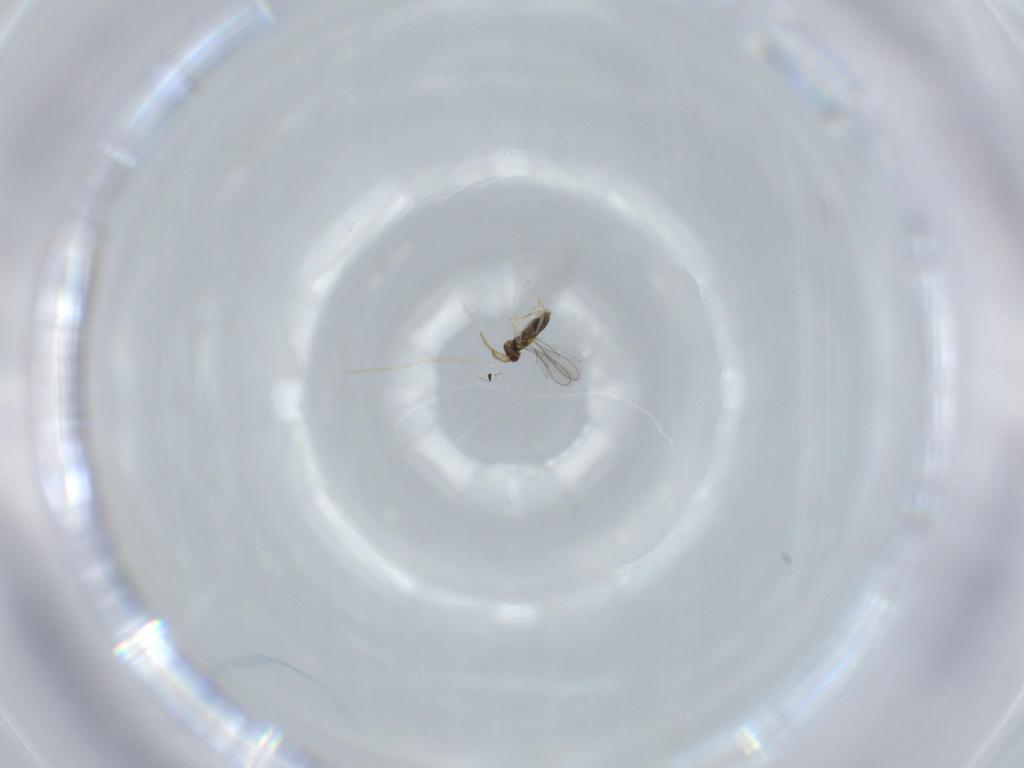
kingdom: Animalia
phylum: Arthropoda
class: Insecta
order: Hymenoptera
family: Aphelinidae
